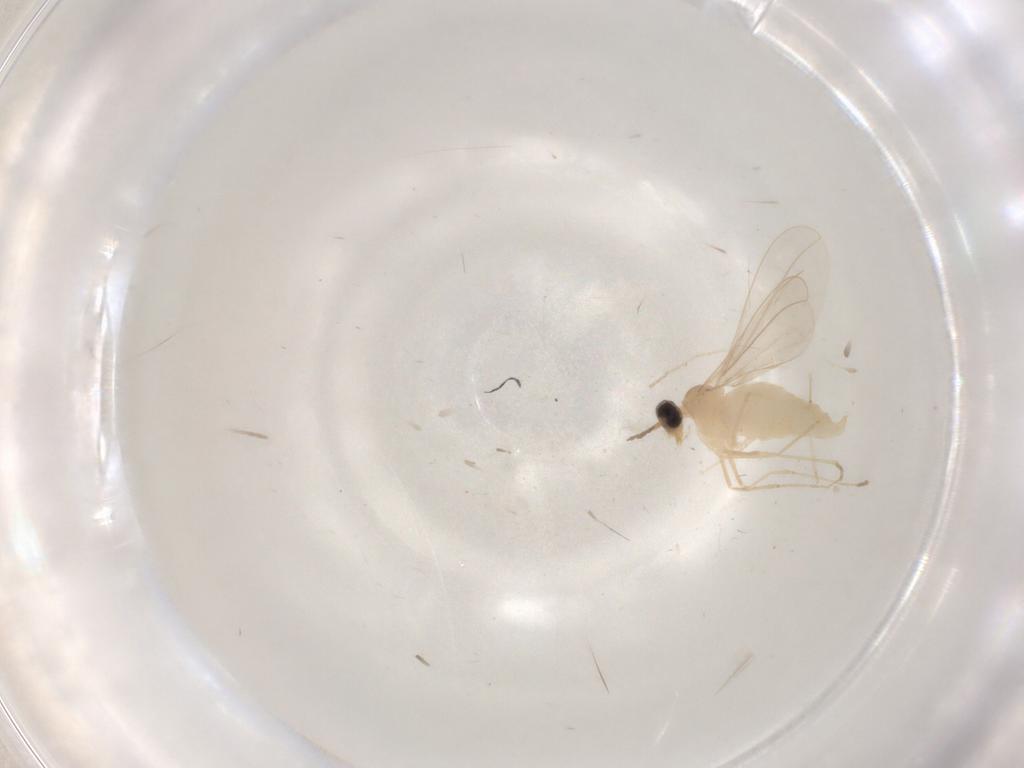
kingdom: Animalia
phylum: Arthropoda
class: Insecta
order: Diptera
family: Cecidomyiidae
